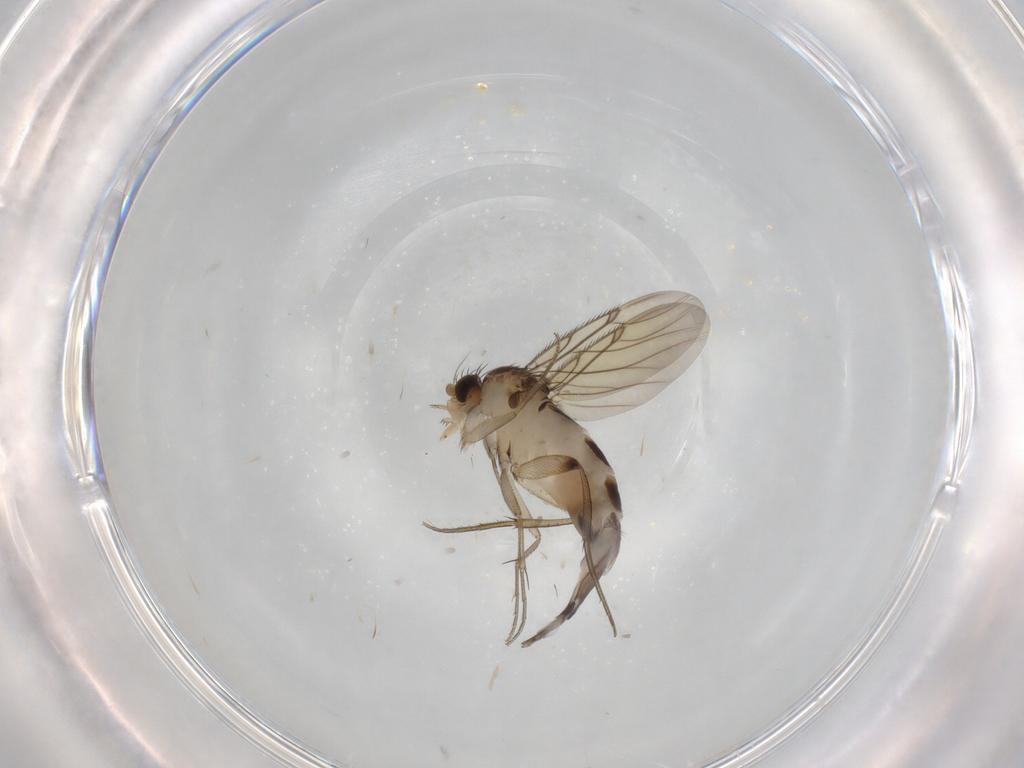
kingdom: Animalia
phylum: Arthropoda
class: Insecta
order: Diptera
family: Phoridae
